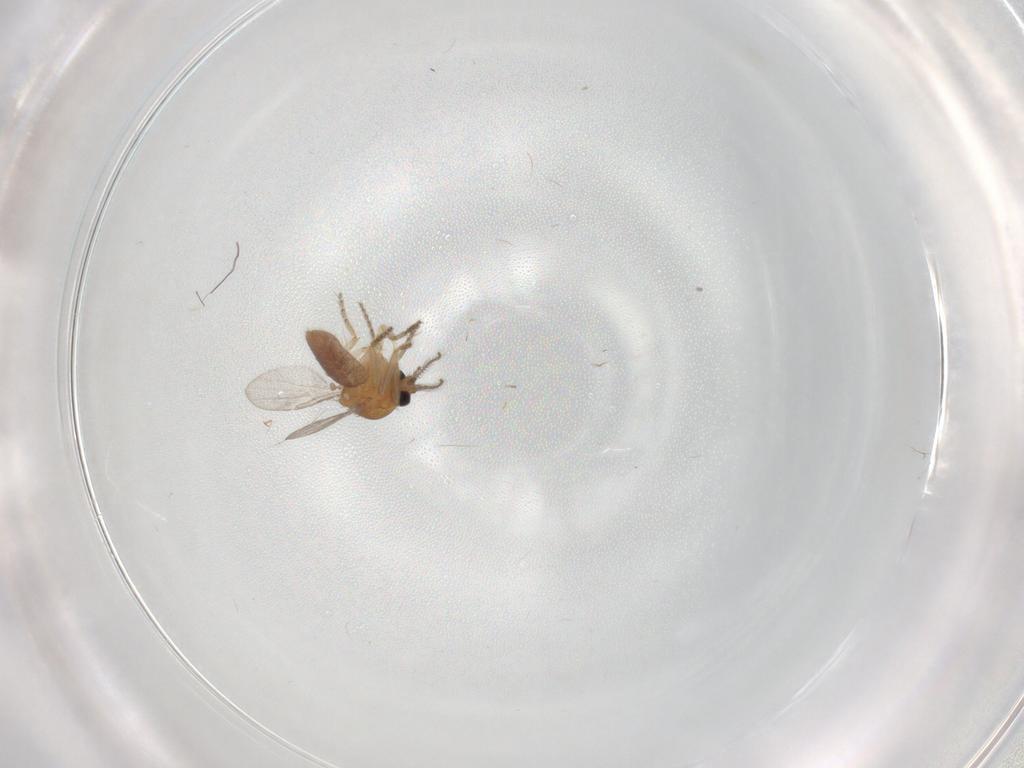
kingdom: Animalia
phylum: Arthropoda
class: Insecta
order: Diptera
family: Ceratopogonidae
